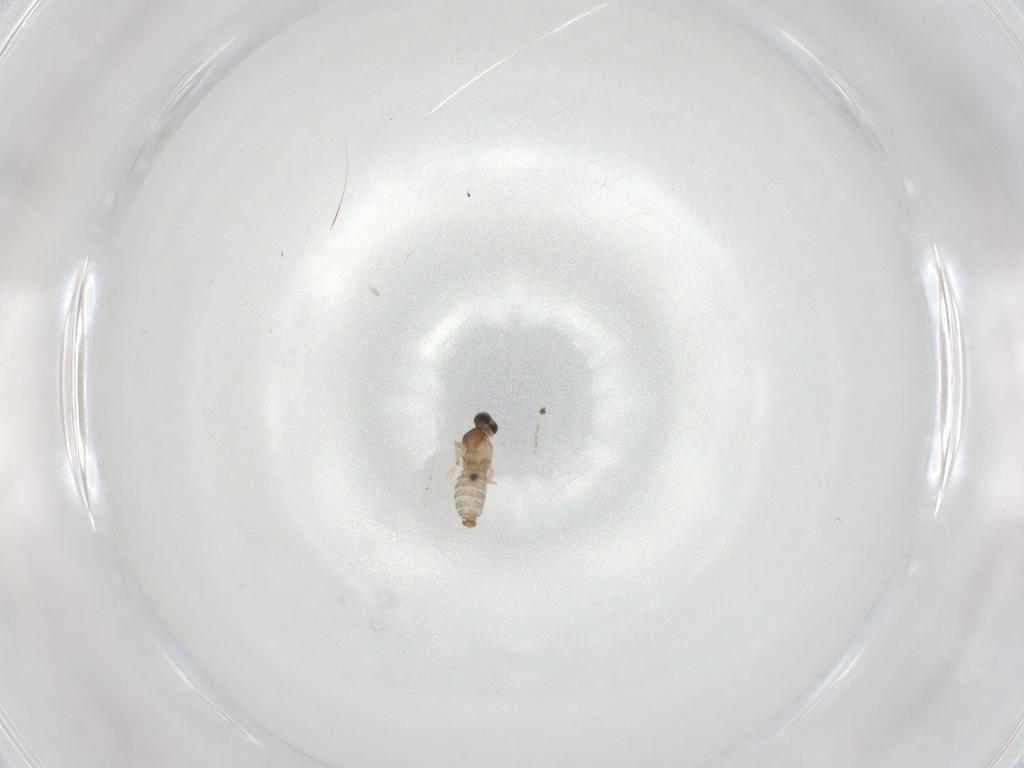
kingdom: Animalia
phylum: Arthropoda
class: Insecta
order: Diptera
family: Cecidomyiidae
